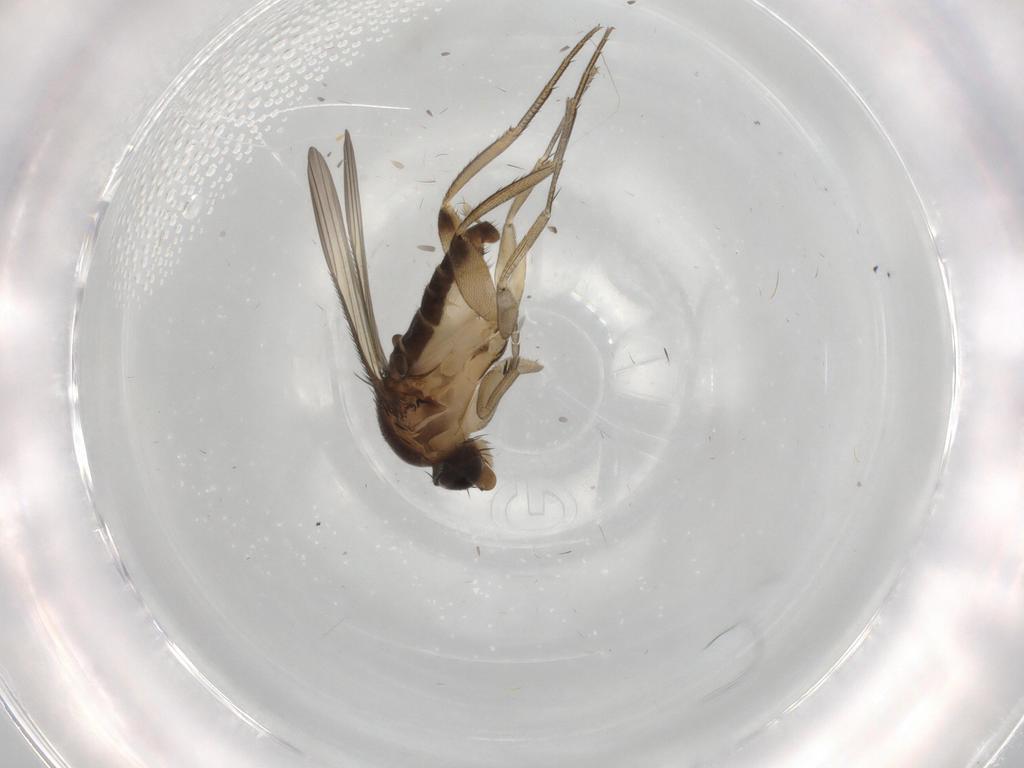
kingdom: Animalia
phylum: Arthropoda
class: Insecta
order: Diptera
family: Phoridae
